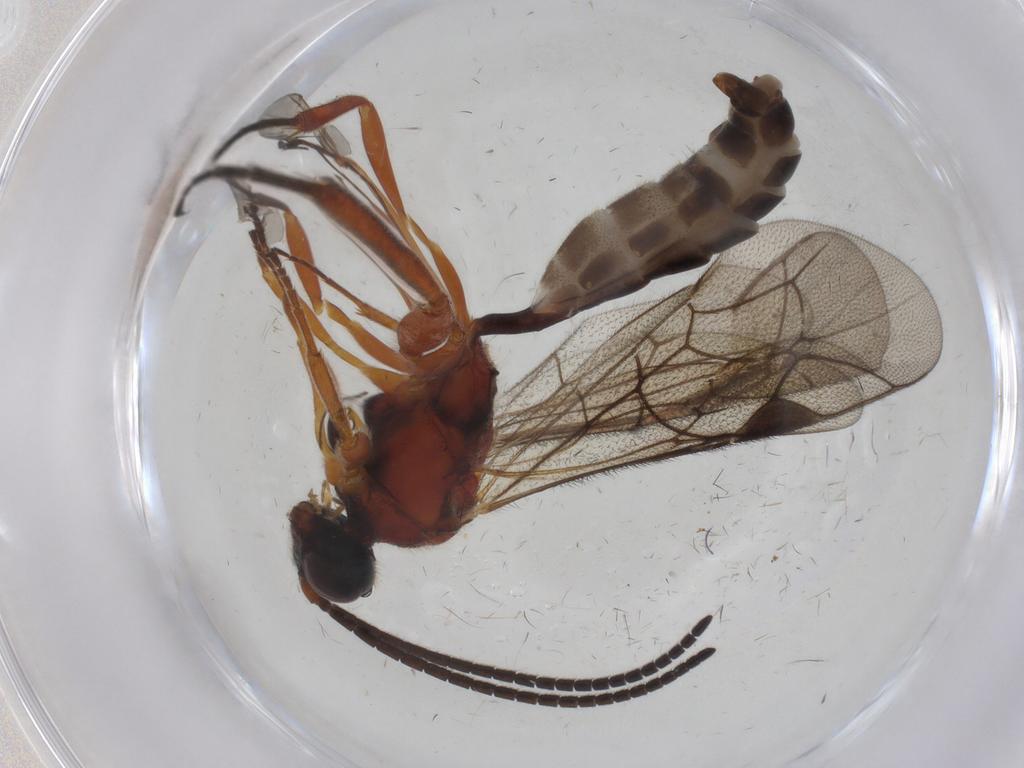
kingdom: Animalia
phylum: Arthropoda
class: Insecta
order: Hymenoptera
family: Ichneumonidae
